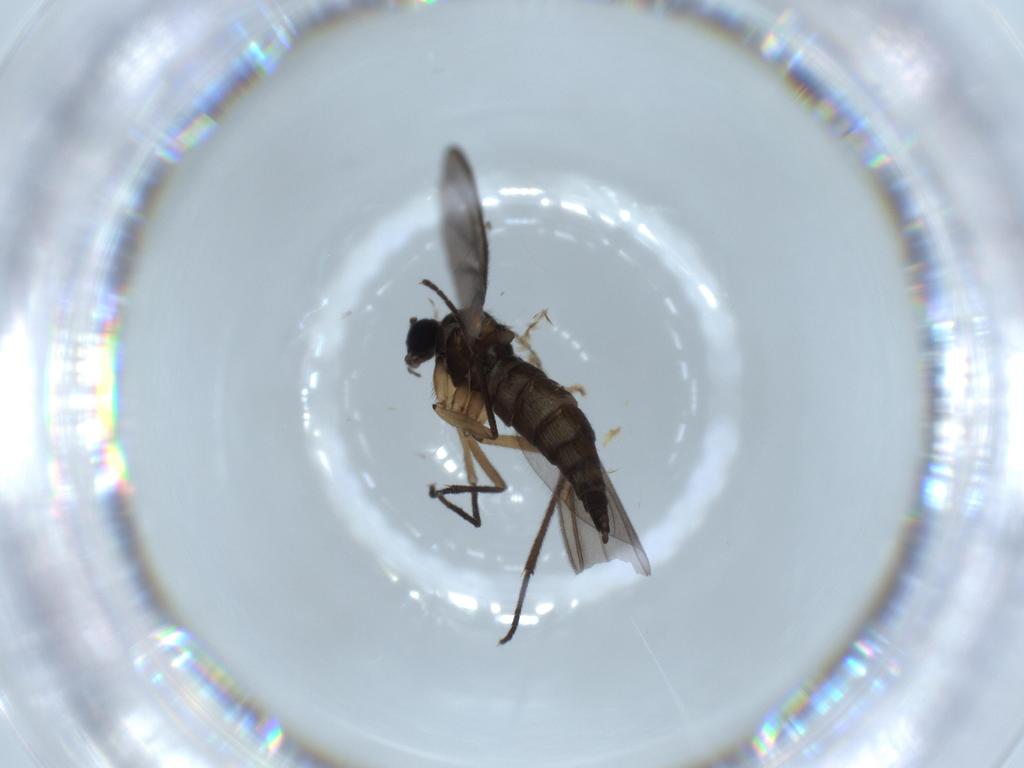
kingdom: Animalia
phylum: Arthropoda
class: Insecta
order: Diptera
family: Sciaridae
